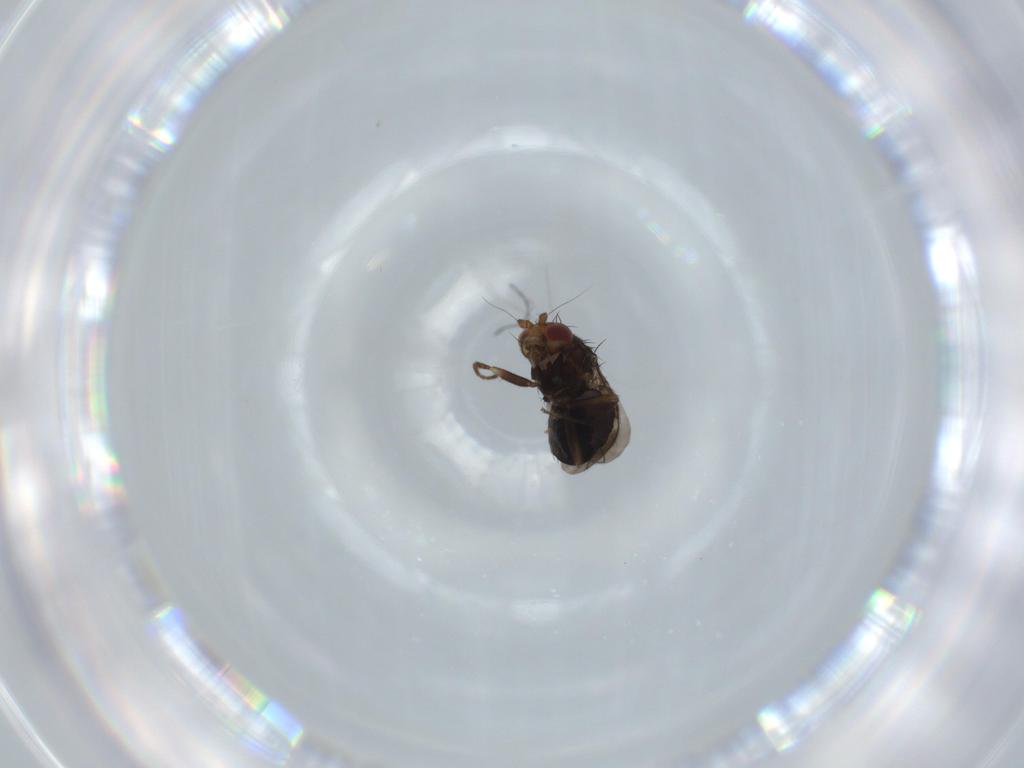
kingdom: Animalia
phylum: Arthropoda
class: Insecta
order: Diptera
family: Sphaeroceridae
